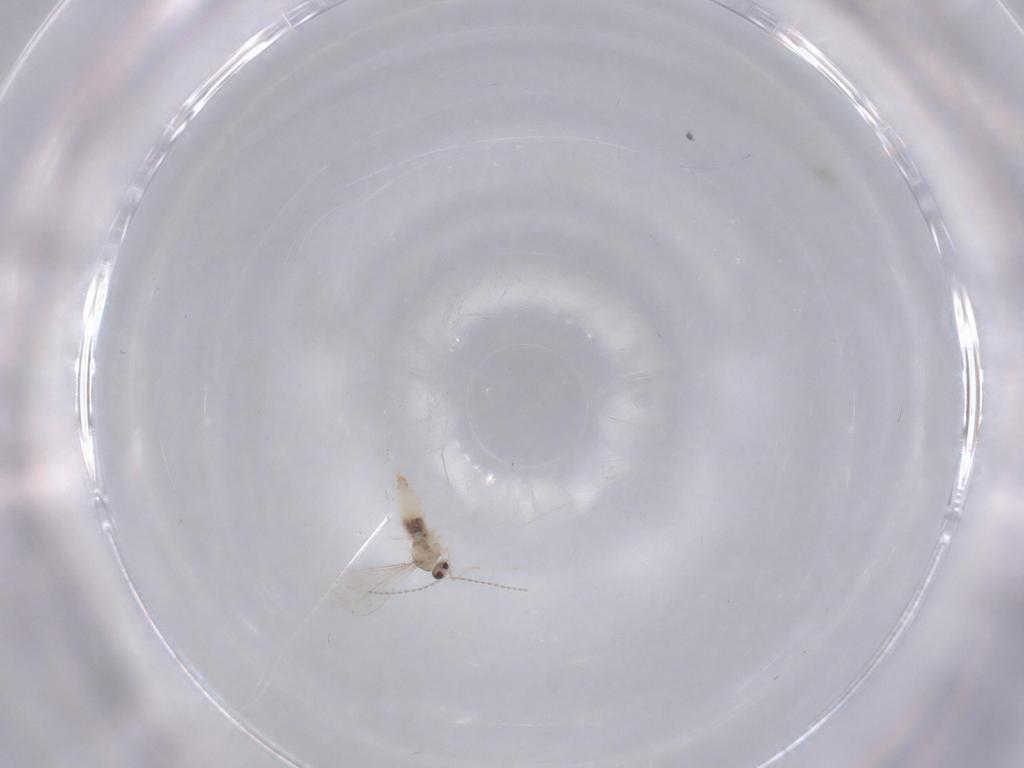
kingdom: Animalia
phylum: Arthropoda
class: Insecta
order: Diptera
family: Cecidomyiidae
